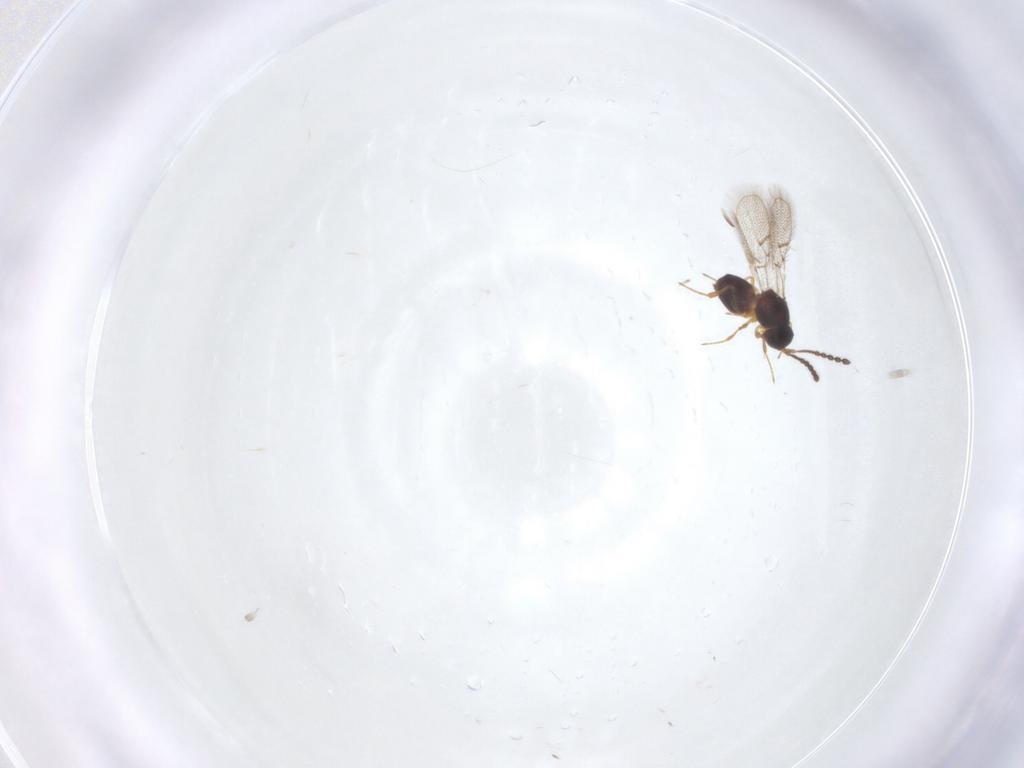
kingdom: Animalia
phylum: Arthropoda
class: Insecta
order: Hymenoptera
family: Figitidae
